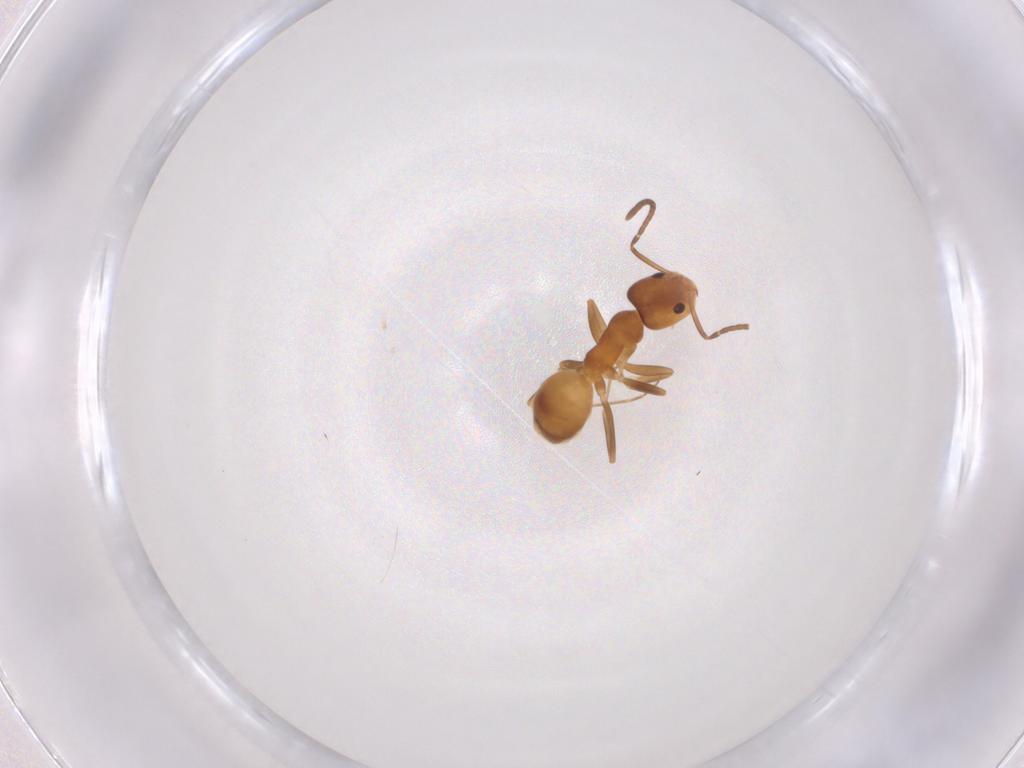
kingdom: Animalia
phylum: Arthropoda
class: Insecta
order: Hymenoptera
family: Formicidae
